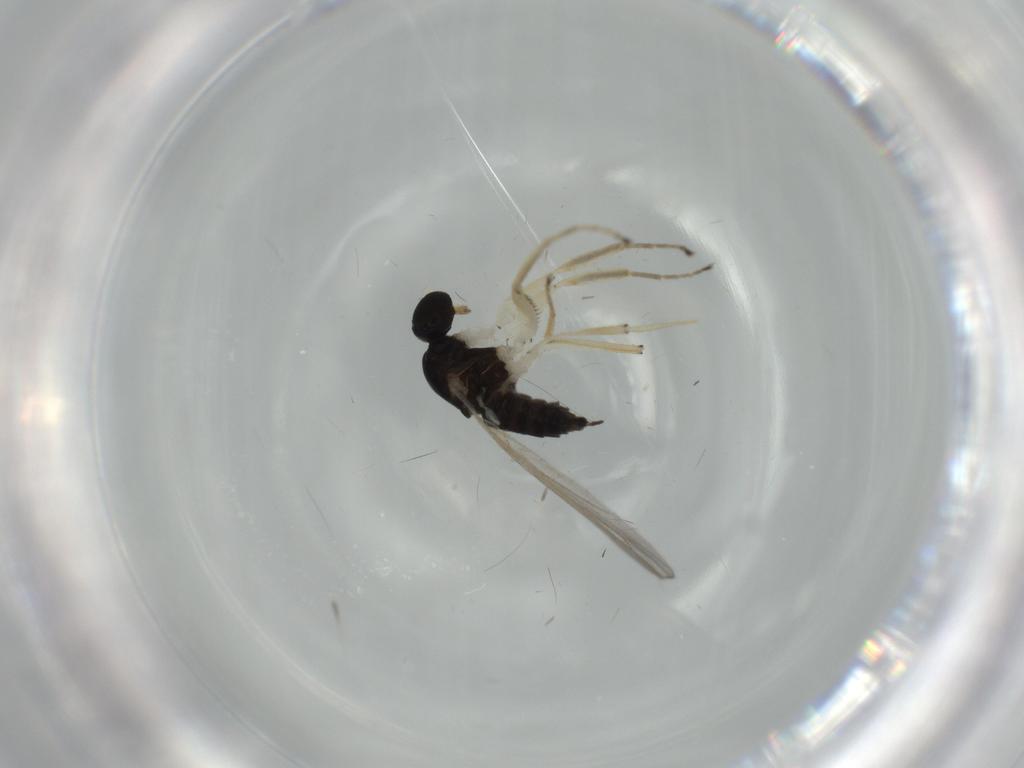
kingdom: Animalia
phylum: Arthropoda
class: Insecta
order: Diptera
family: Hybotidae
